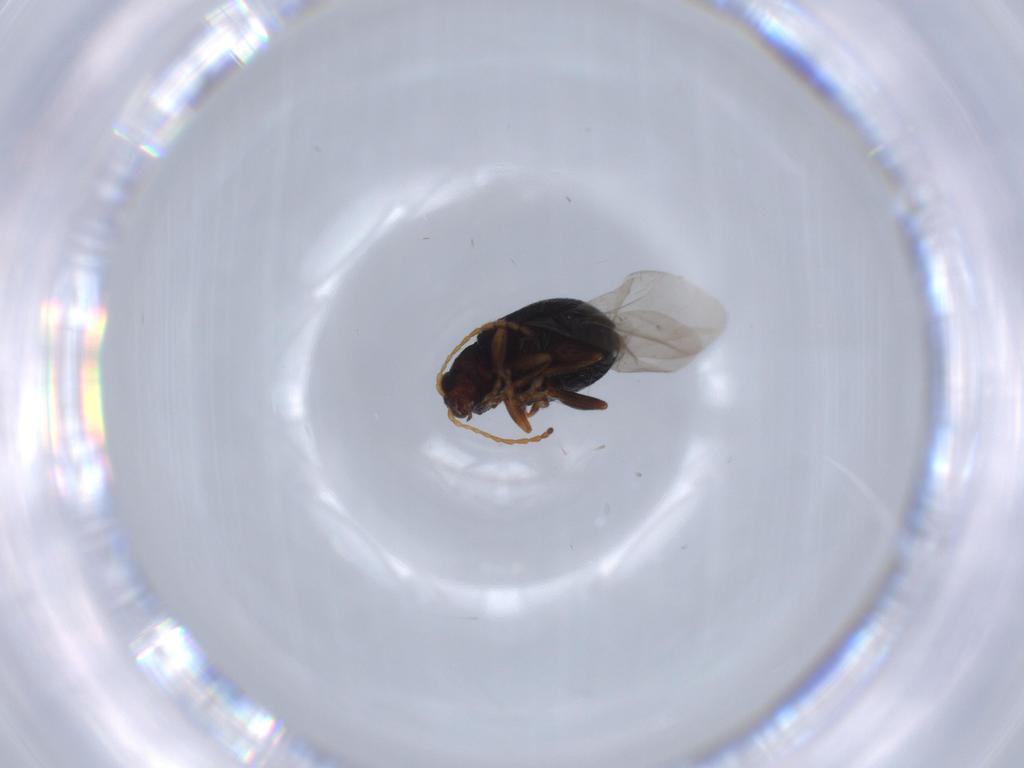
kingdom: Animalia
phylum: Arthropoda
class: Insecta
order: Coleoptera
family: Chrysomelidae
